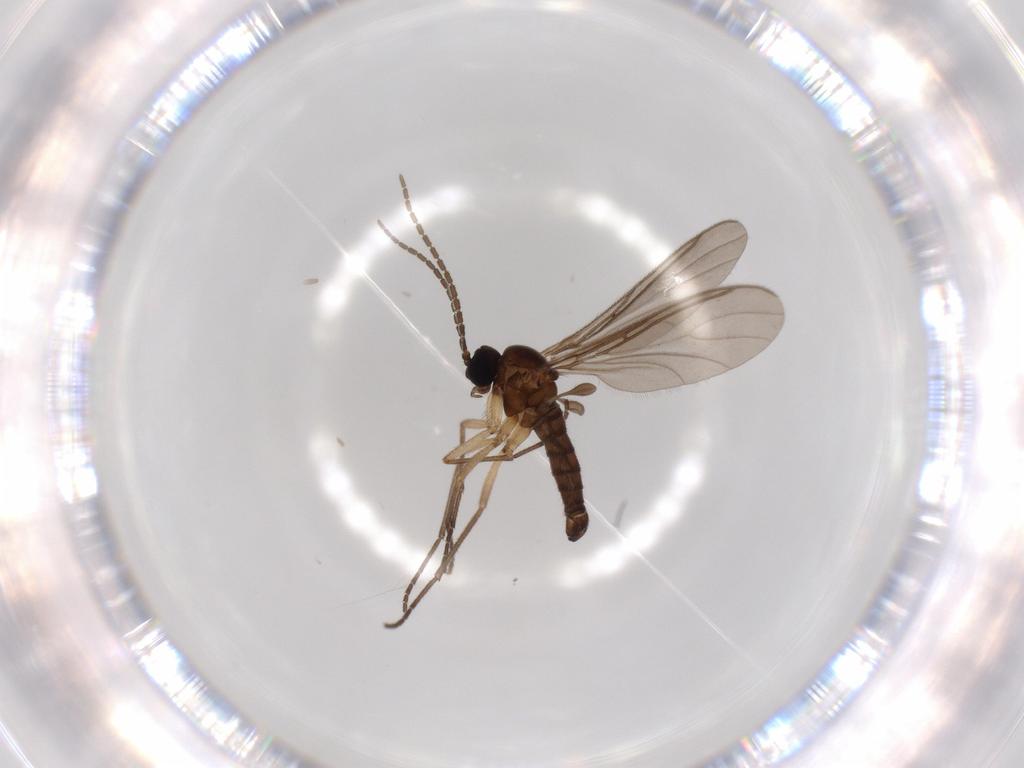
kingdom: Animalia
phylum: Arthropoda
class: Insecta
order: Diptera
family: Sciaridae
